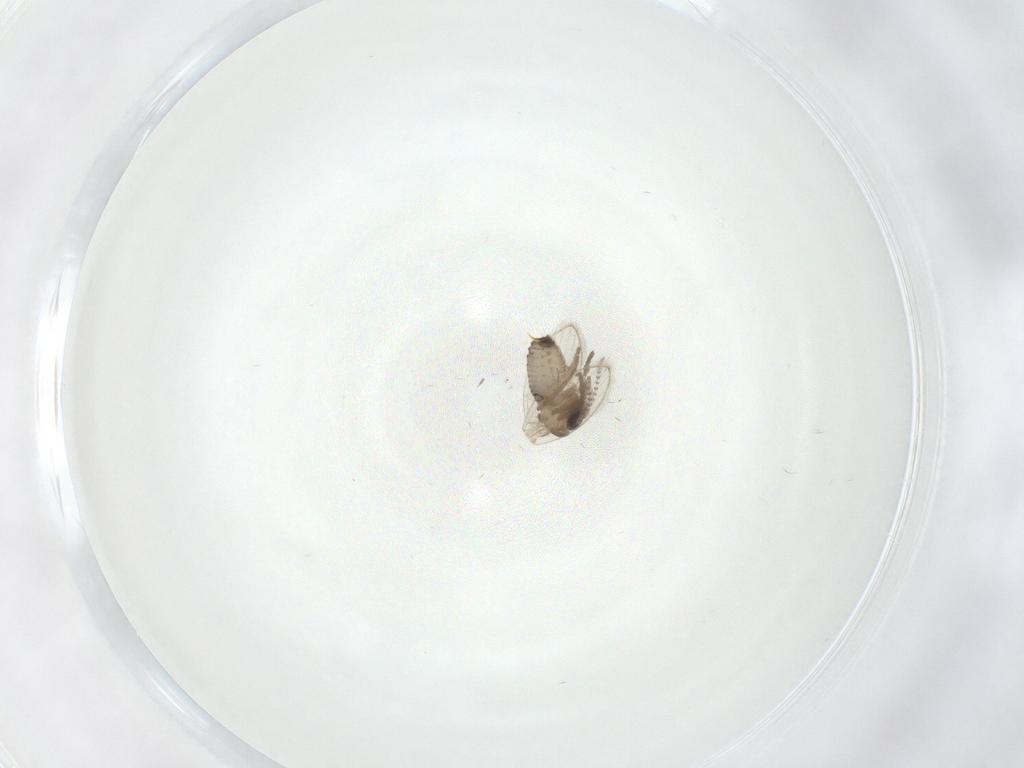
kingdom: Animalia
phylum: Arthropoda
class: Insecta
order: Diptera
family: Psychodidae
